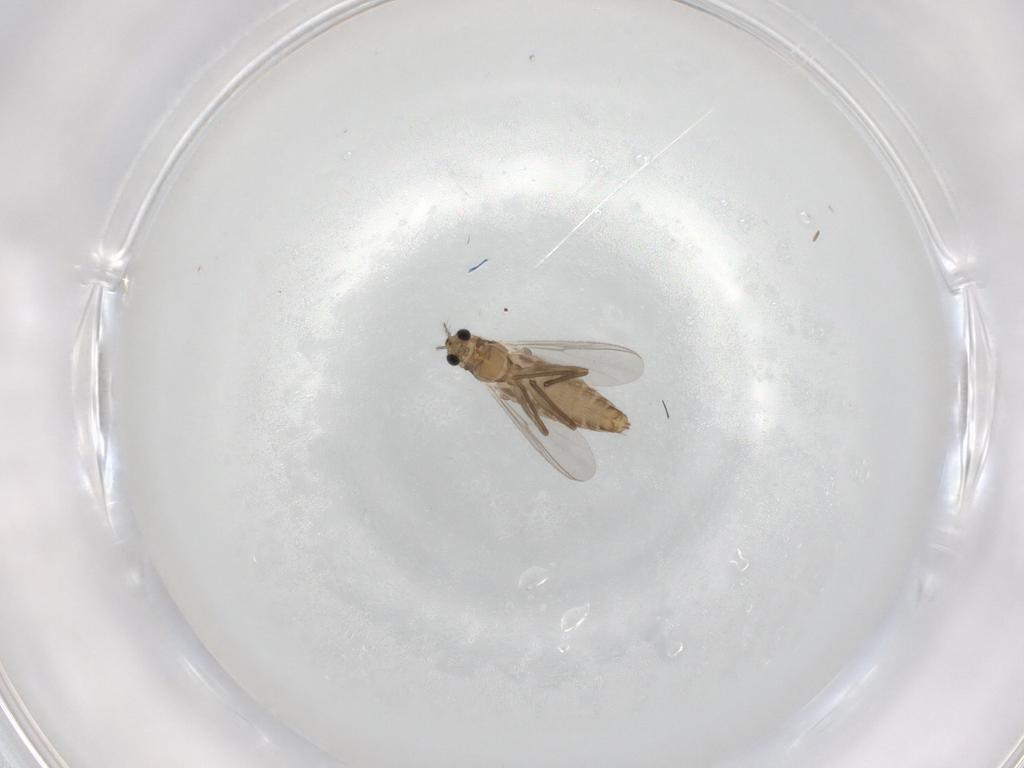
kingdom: Animalia
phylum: Arthropoda
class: Insecta
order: Diptera
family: Chironomidae
